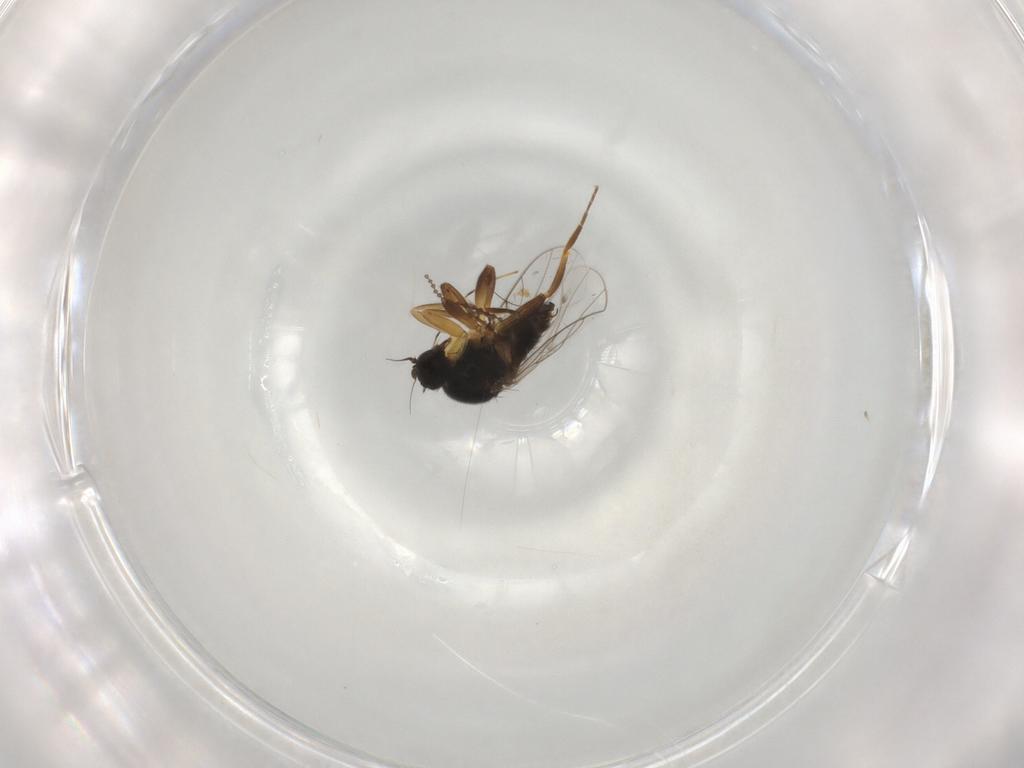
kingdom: Animalia
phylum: Arthropoda
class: Insecta
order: Diptera
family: Hybotidae
